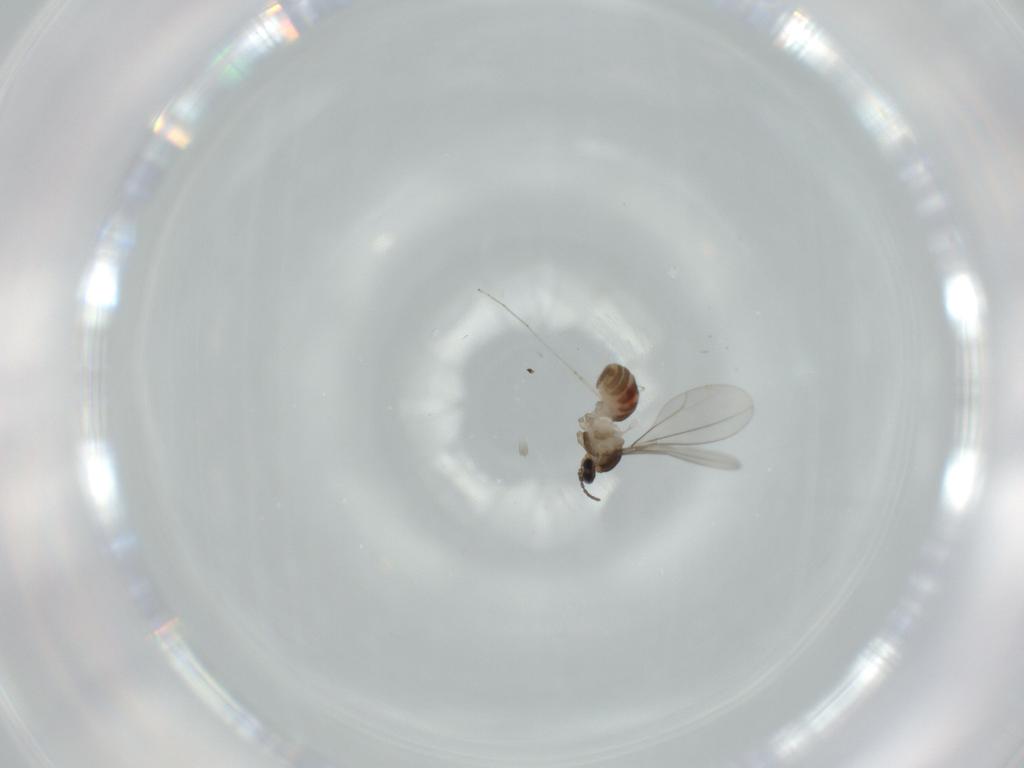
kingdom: Animalia
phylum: Arthropoda
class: Insecta
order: Diptera
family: Cecidomyiidae
